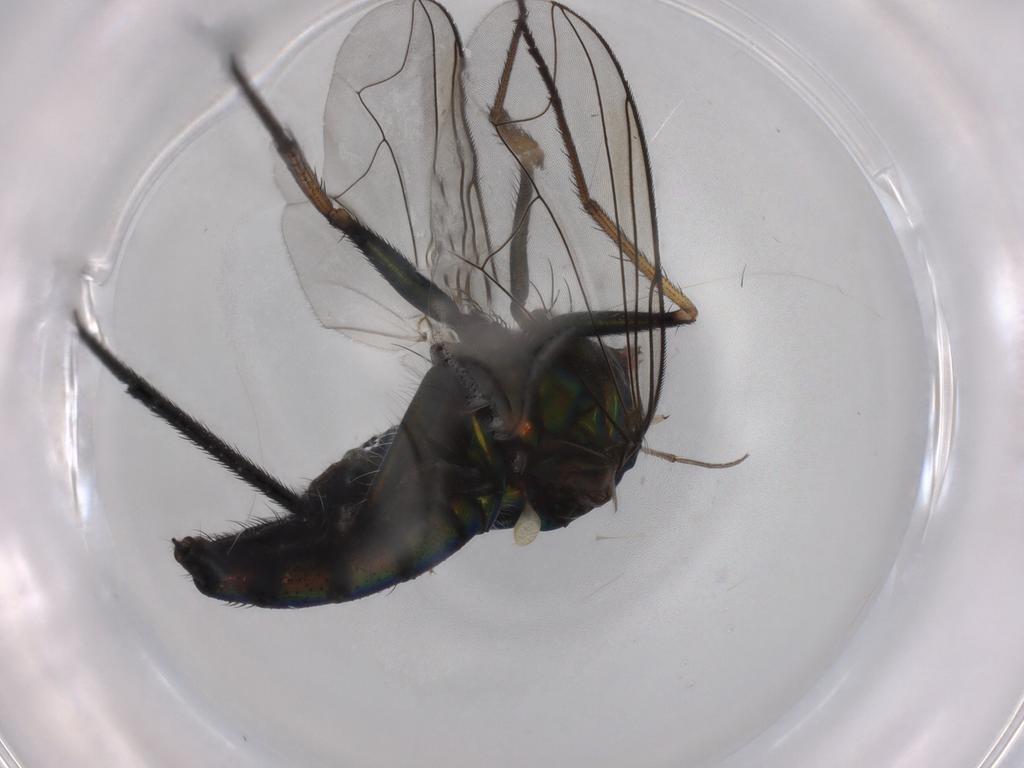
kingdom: Animalia
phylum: Arthropoda
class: Insecta
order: Diptera
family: Dolichopodidae
